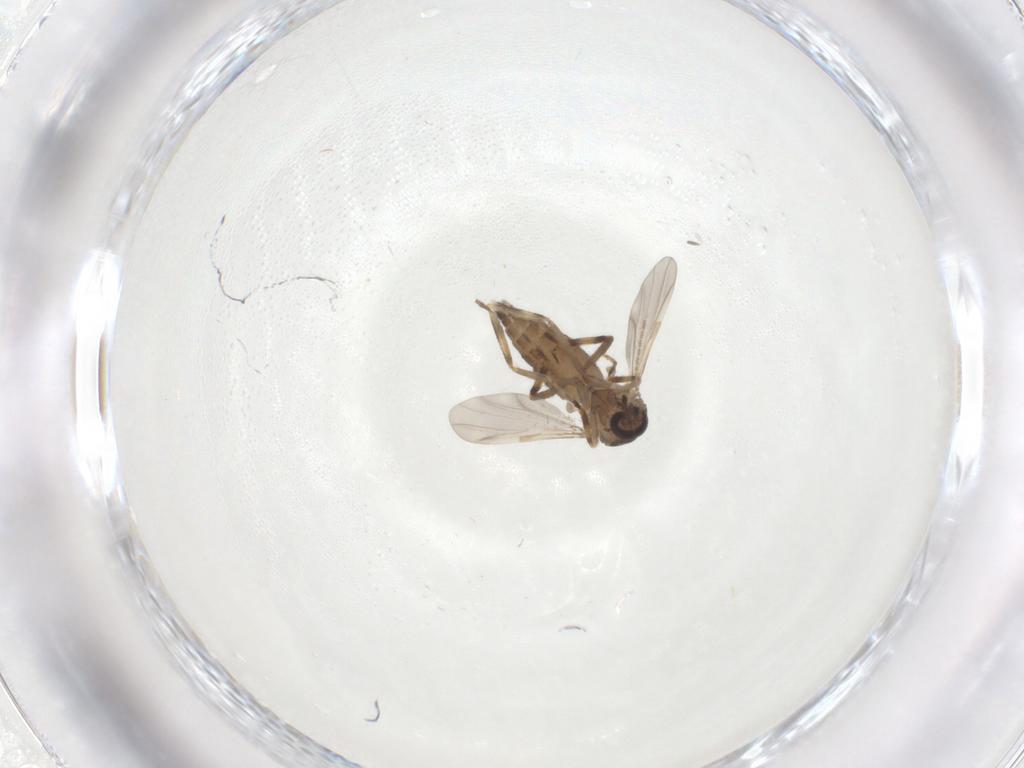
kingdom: Animalia
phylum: Arthropoda
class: Insecta
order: Diptera
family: Ceratopogonidae
